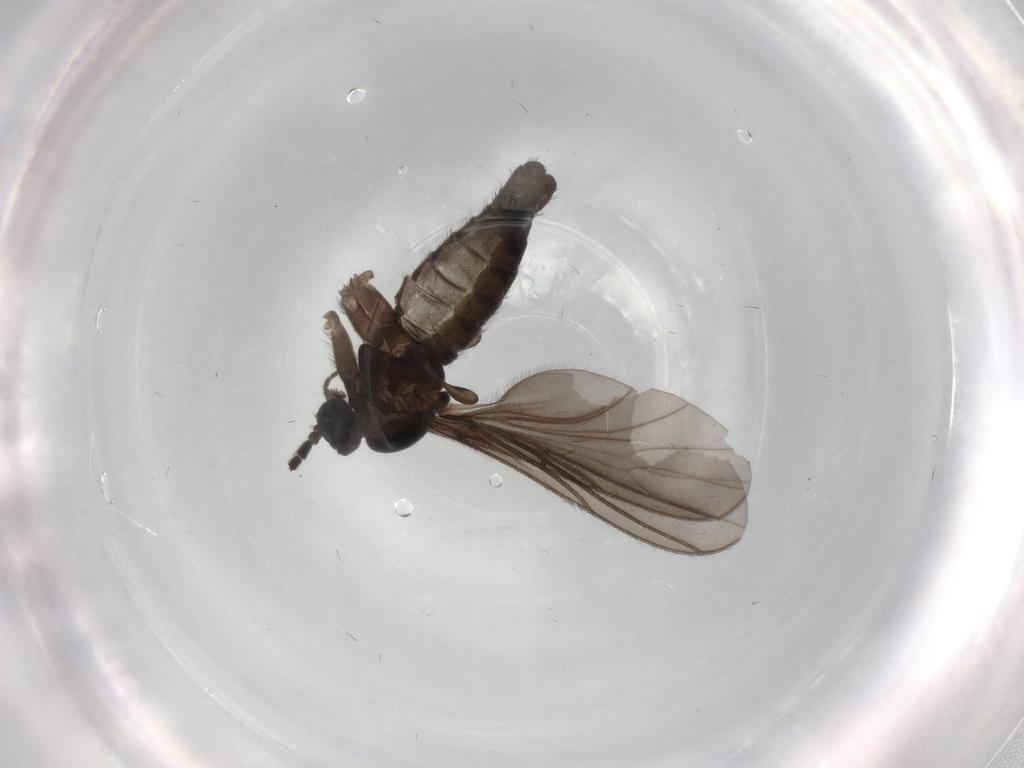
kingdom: Animalia
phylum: Arthropoda
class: Insecta
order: Diptera
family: Sciaridae
